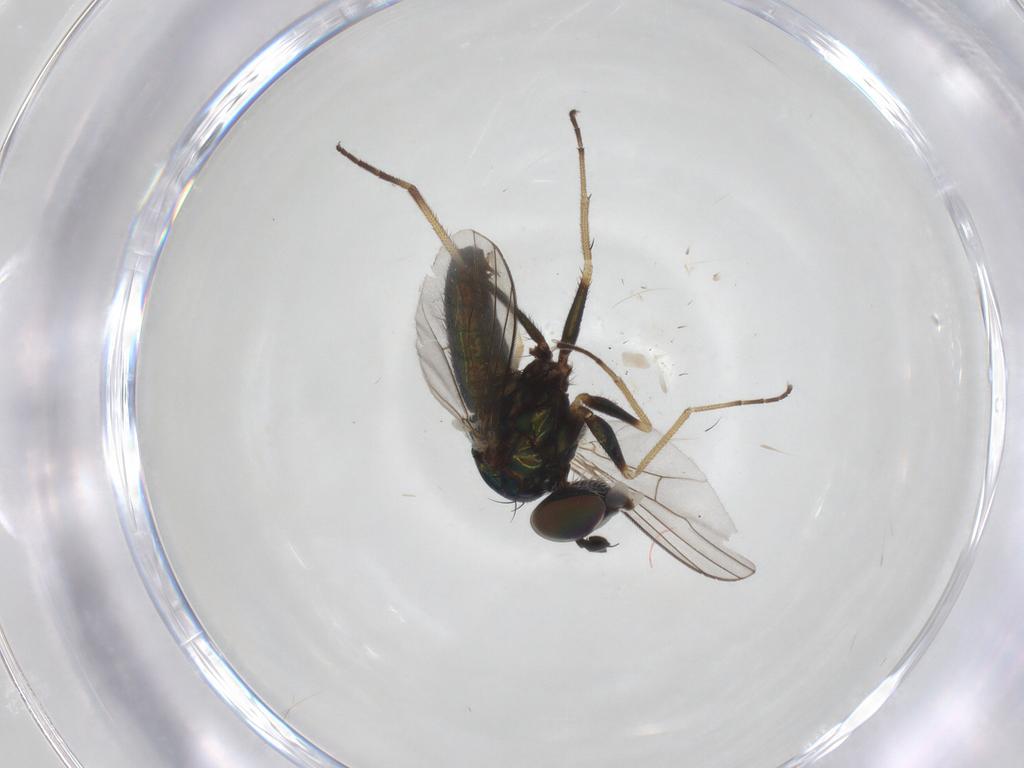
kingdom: Animalia
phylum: Arthropoda
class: Insecta
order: Diptera
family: Dolichopodidae
